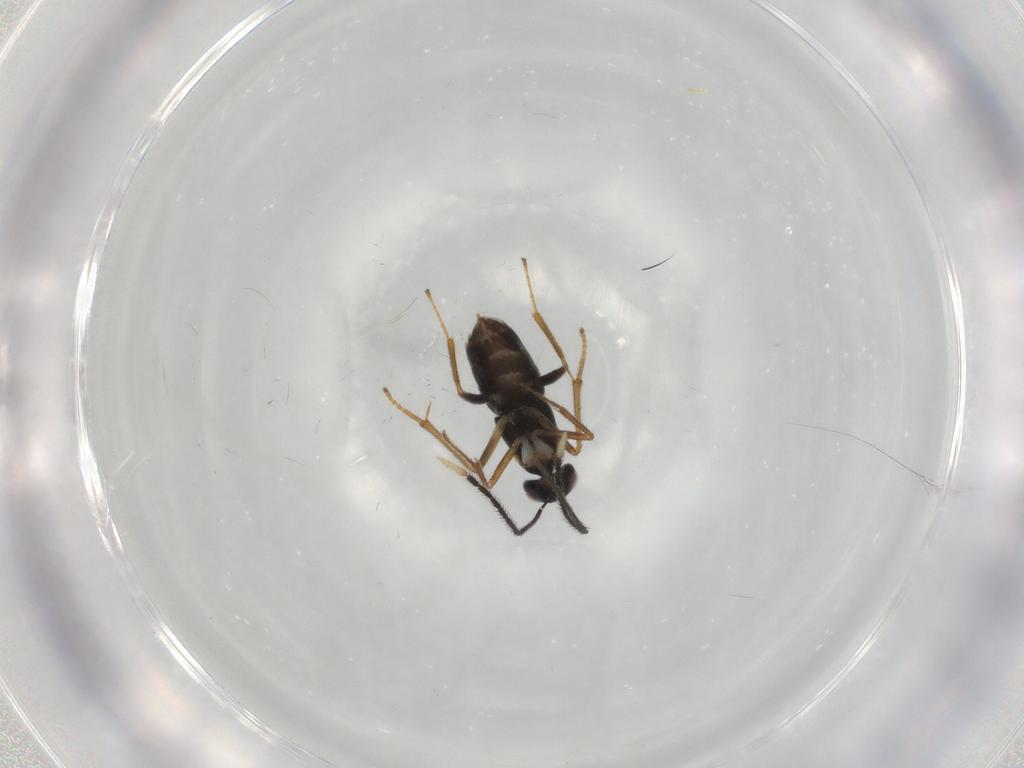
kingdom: Animalia
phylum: Arthropoda
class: Insecta
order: Hymenoptera
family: Encyrtidae
